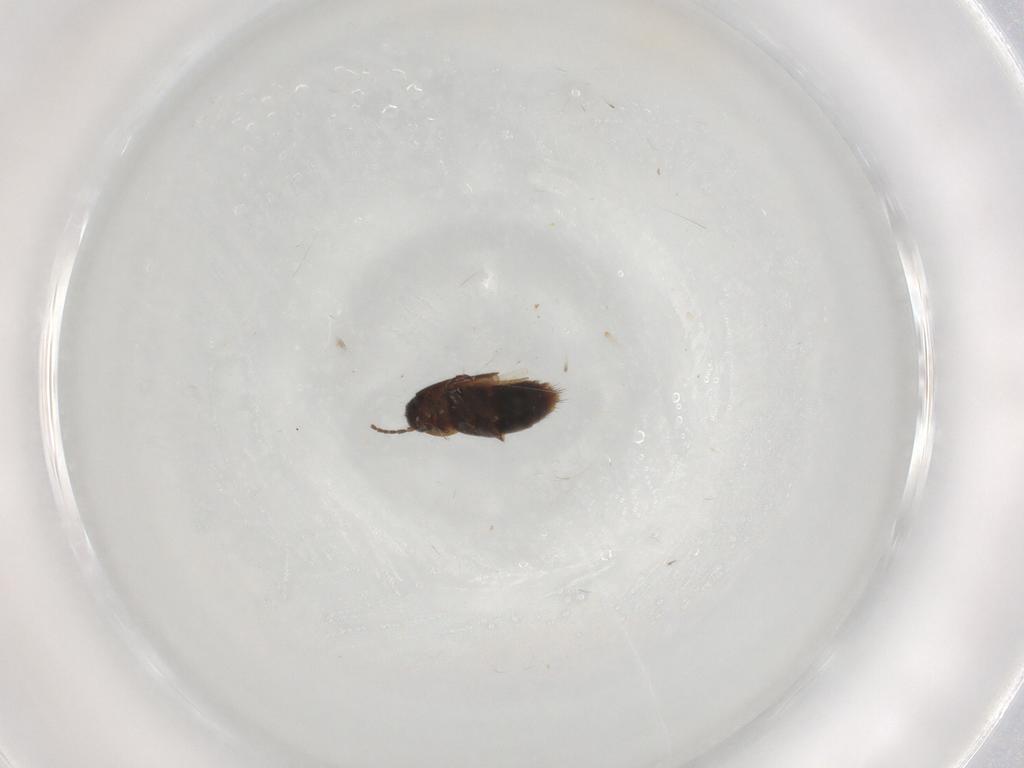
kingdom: Animalia
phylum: Arthropoda
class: Insecta
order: Coleoptera
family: Staphylinidae
